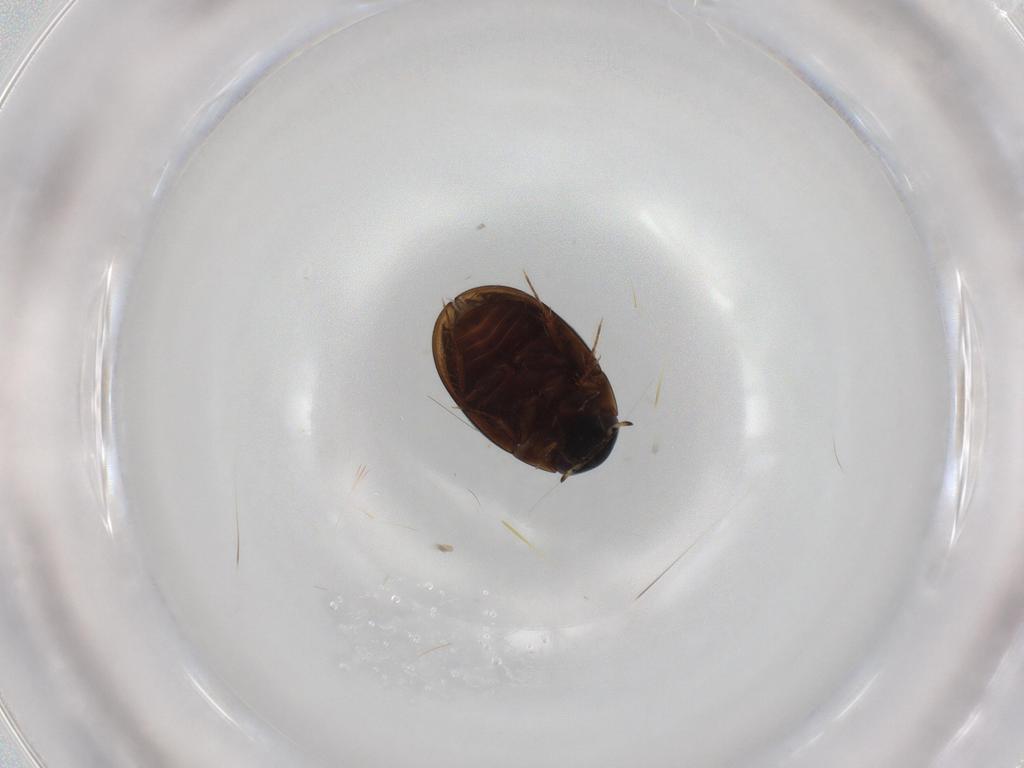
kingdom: Animalia
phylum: Arthropoda
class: Insecta
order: Coleoptera
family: Hydrophilidae
